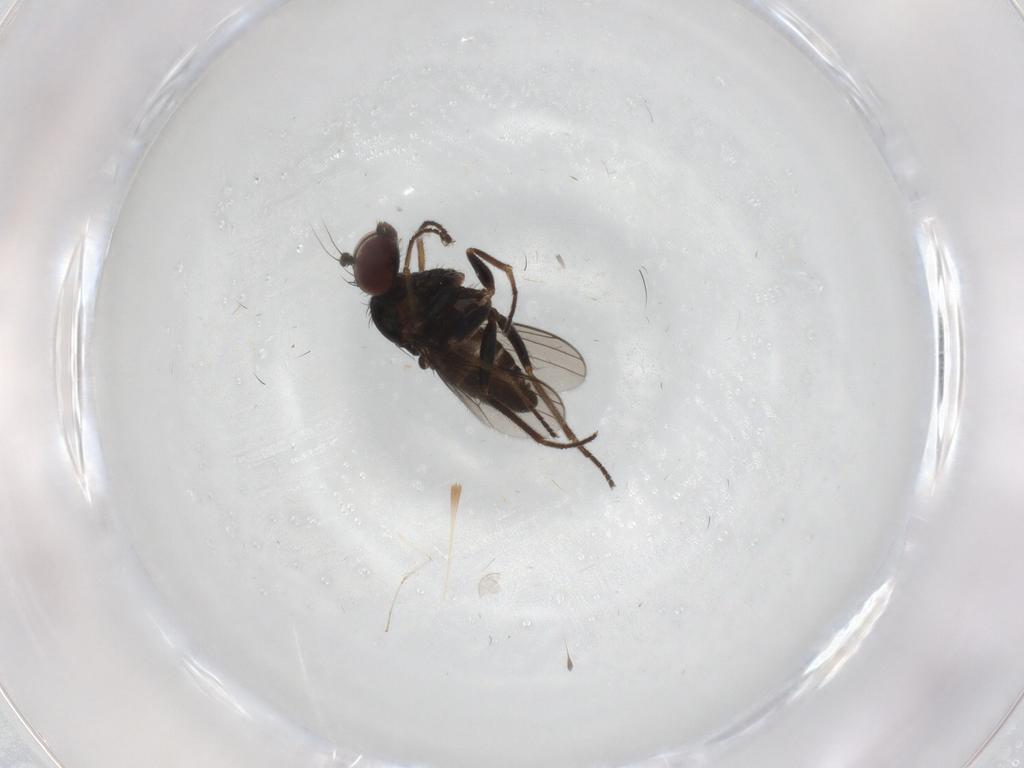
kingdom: Animalia
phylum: Arthropoda
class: Insecta
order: Diptera
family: Dolichopodidae
